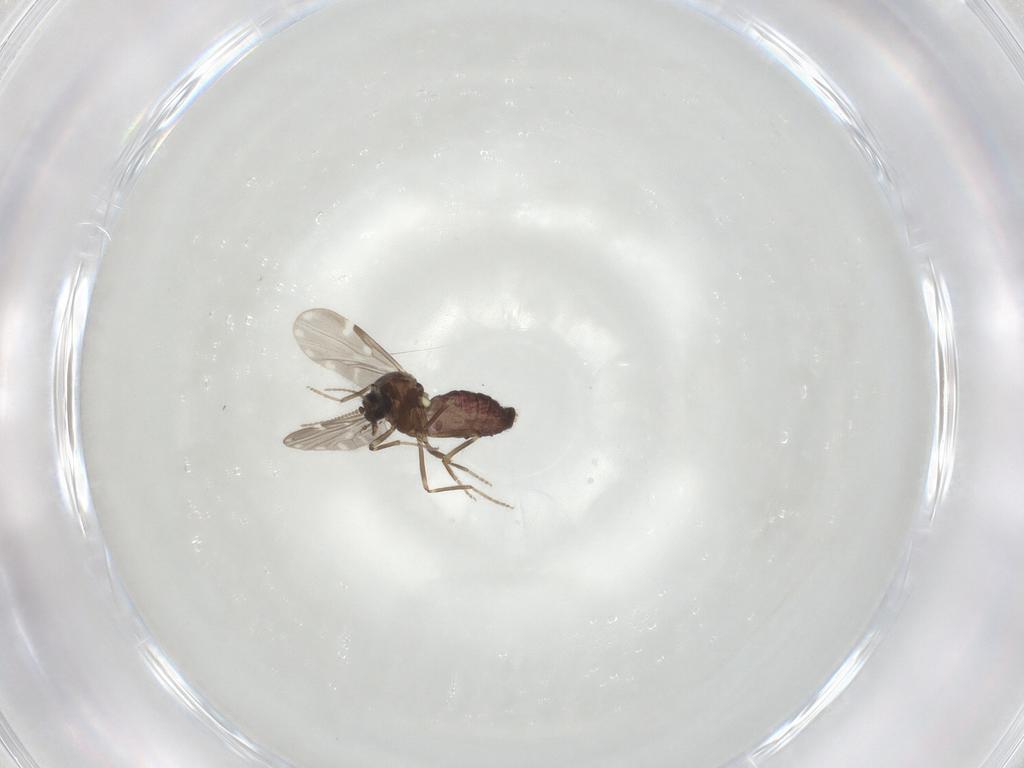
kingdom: Animalia
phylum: Arthropoda
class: Insecta
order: Diptera
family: Ceratopogonidae
